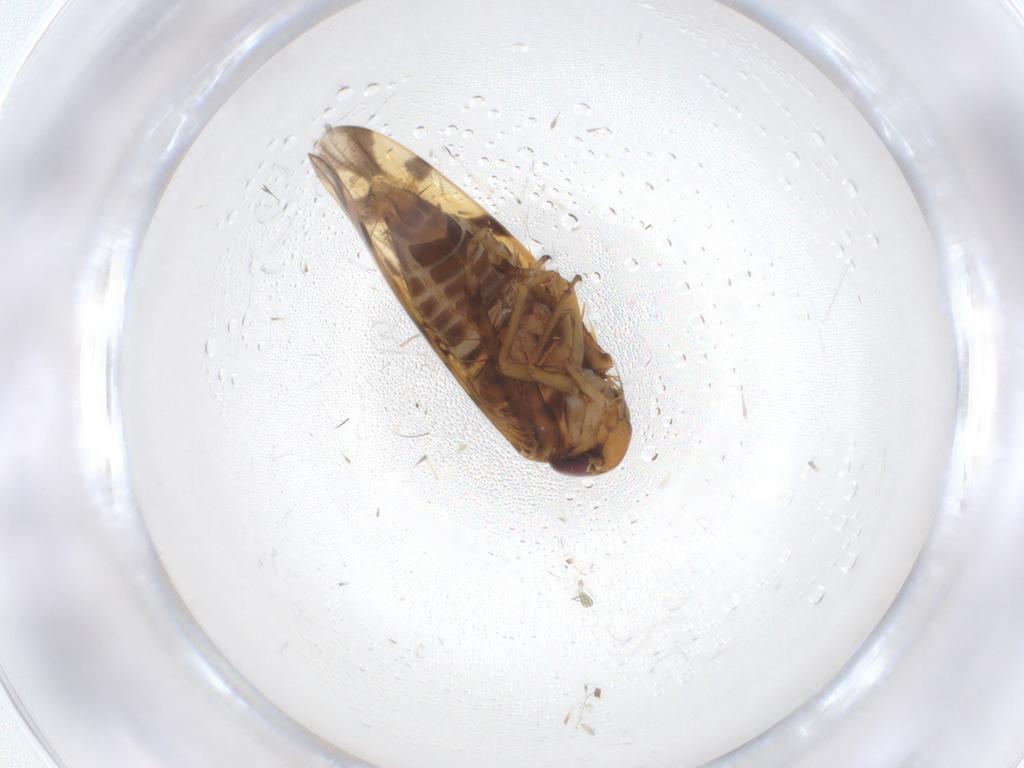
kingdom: Animalia
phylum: Arthropoda
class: Insecta
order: Hemiptera
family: Cicadellidae
